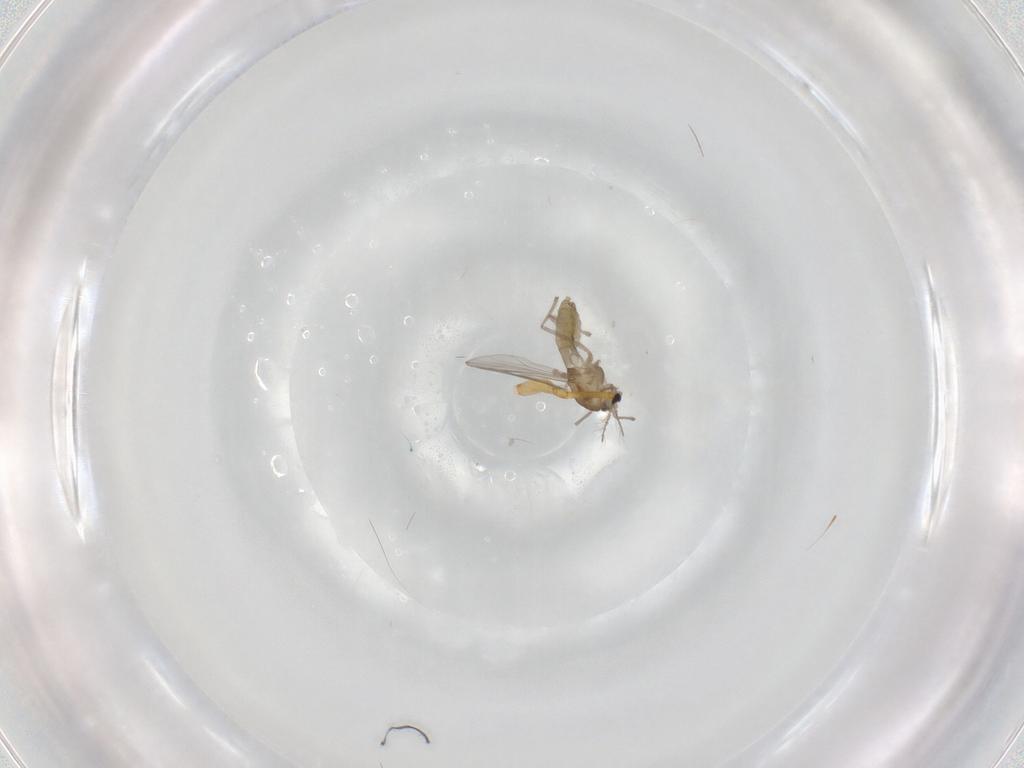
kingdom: Animalia
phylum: Arthropoda
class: Insecta
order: Diptera
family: Chironomidae
